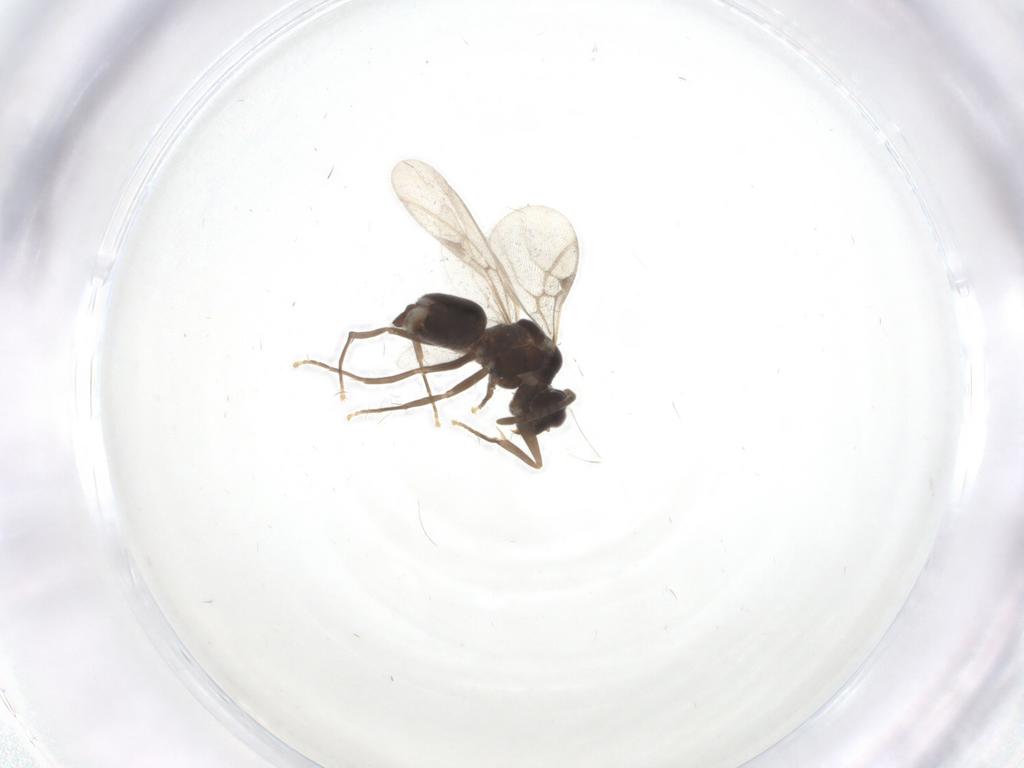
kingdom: Animalia
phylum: Arthropoda
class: Insecta
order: Hymenoptera
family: Formicidae
